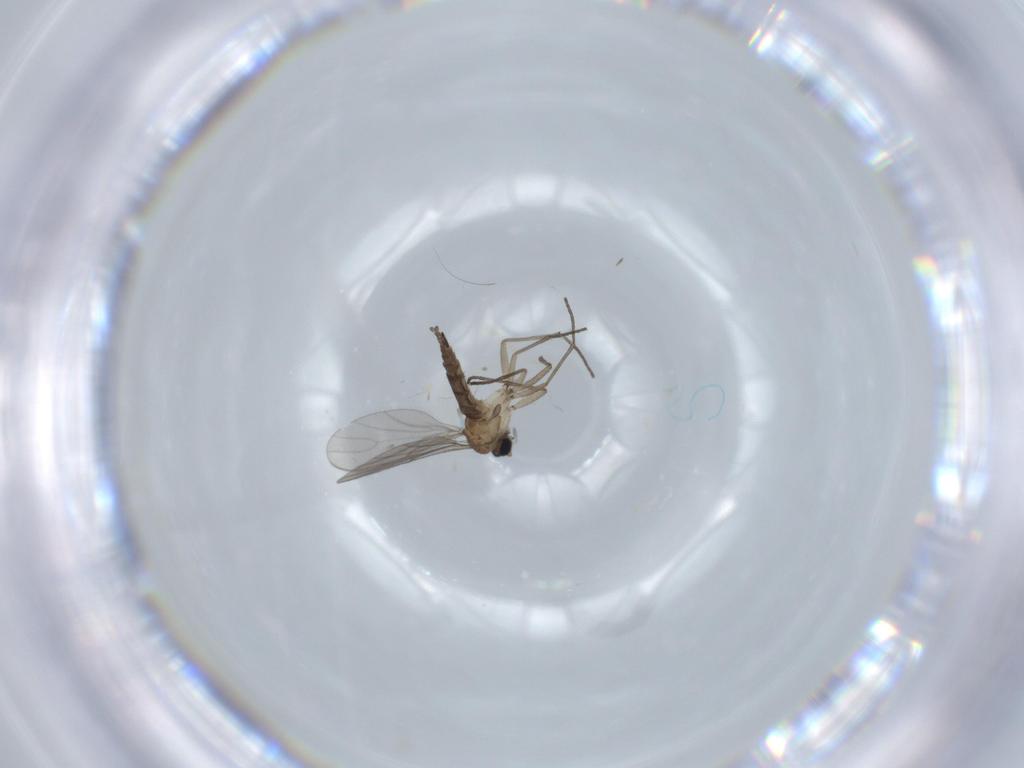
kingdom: Animalia
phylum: Arthropoda
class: Insecta
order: Diptera
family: Sciaridae
